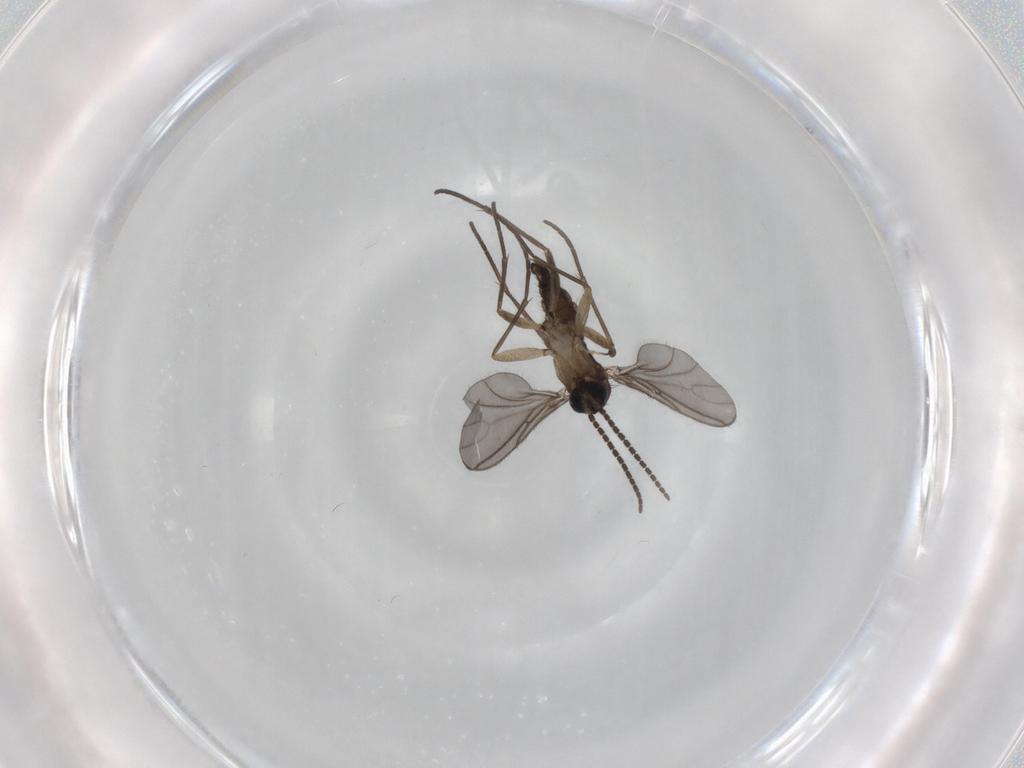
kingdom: Animalia
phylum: Arthropoda
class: Insecta
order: Diptera
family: Sciaridae
